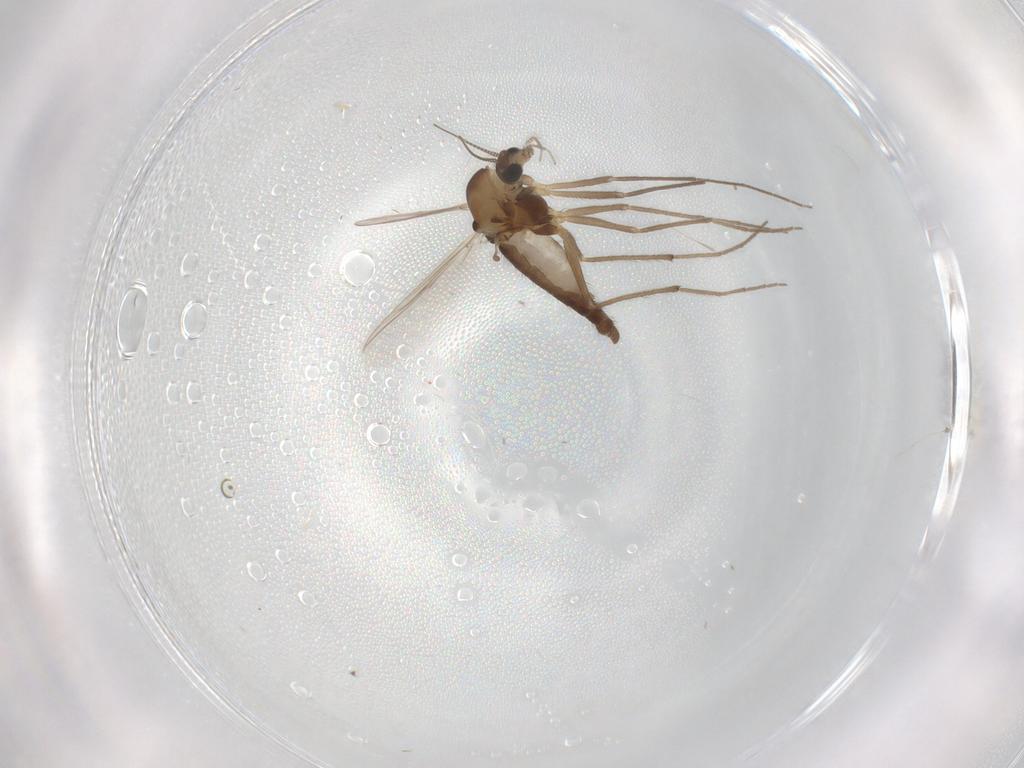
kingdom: Animalia
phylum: Arthropoda
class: Insecta
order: Diptera
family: Chironomidae
